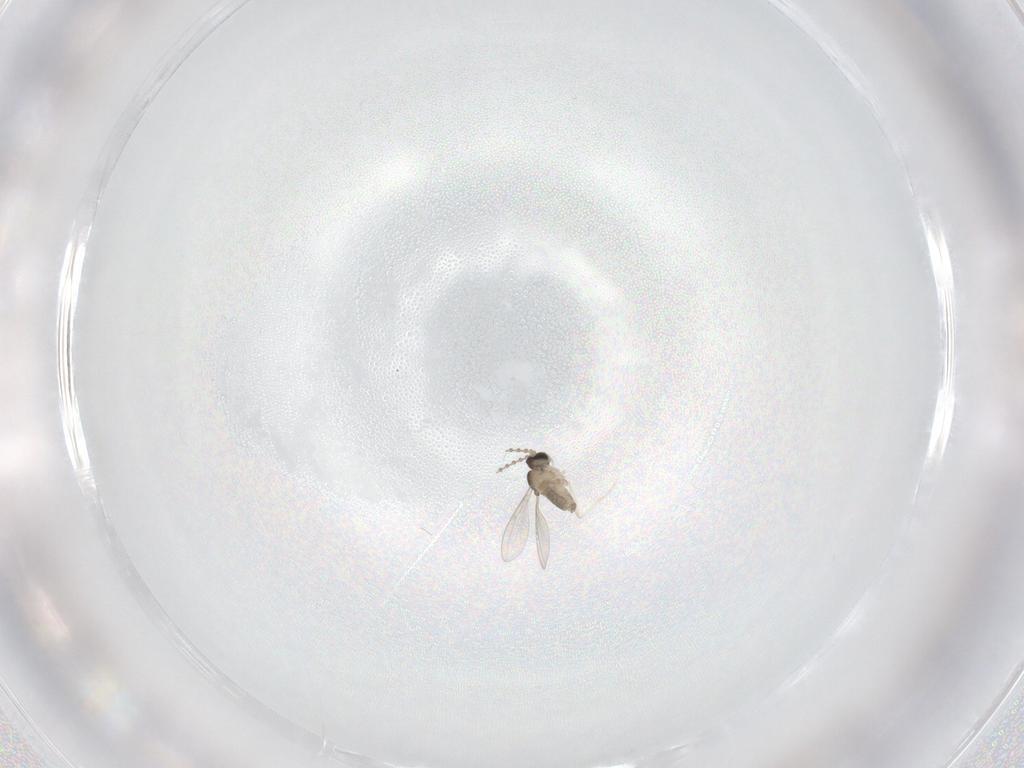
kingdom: Animalia
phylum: Arthropoda
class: Insecta
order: Diptera
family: Cecidomyiidae
